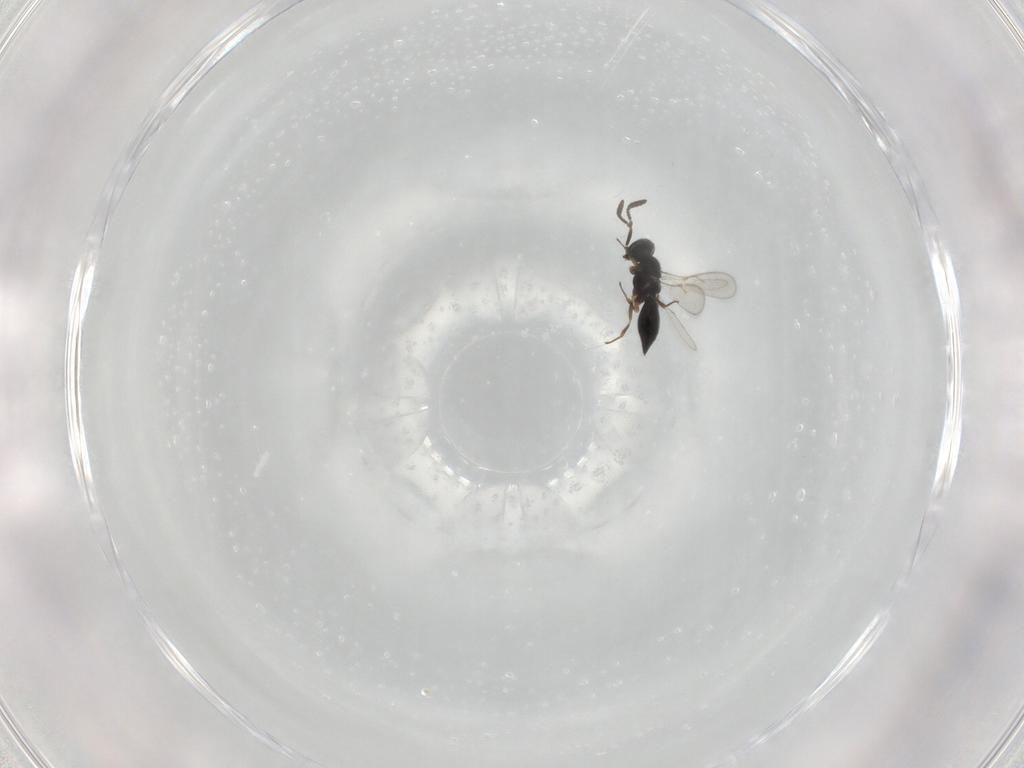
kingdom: Animalia
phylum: Arthropoda
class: Insecta
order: Hymenoptera
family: Scelionidae
